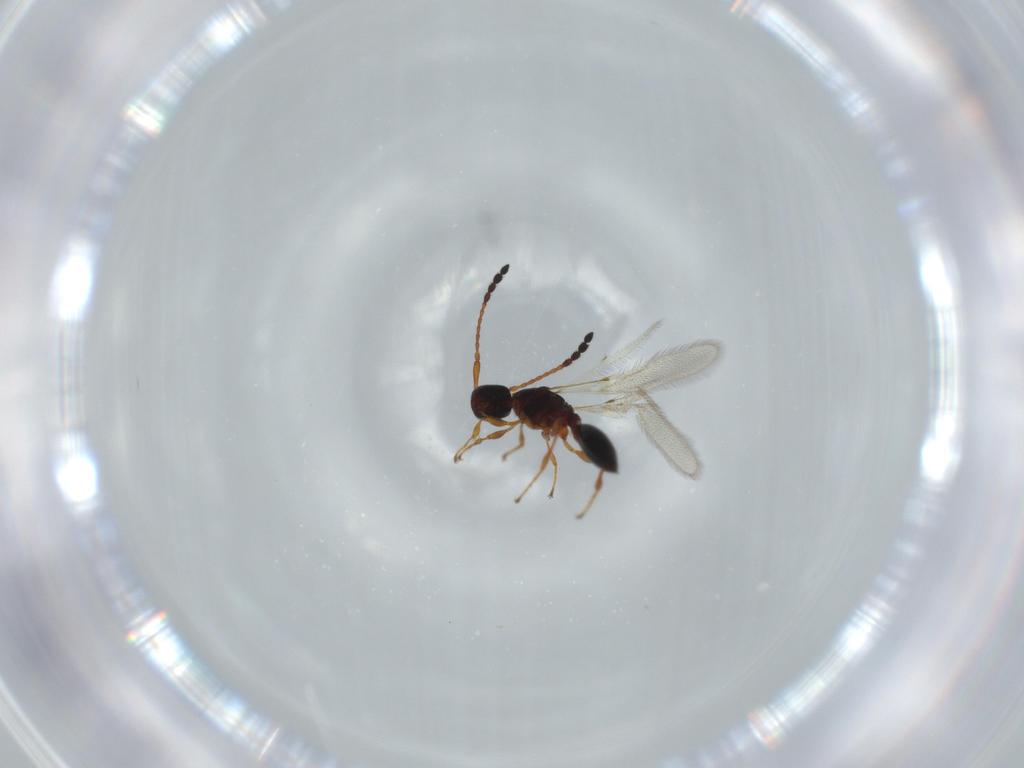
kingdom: Animalia
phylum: Arthropoda
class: Insecta
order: Hymenoptera
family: Diapriidae
